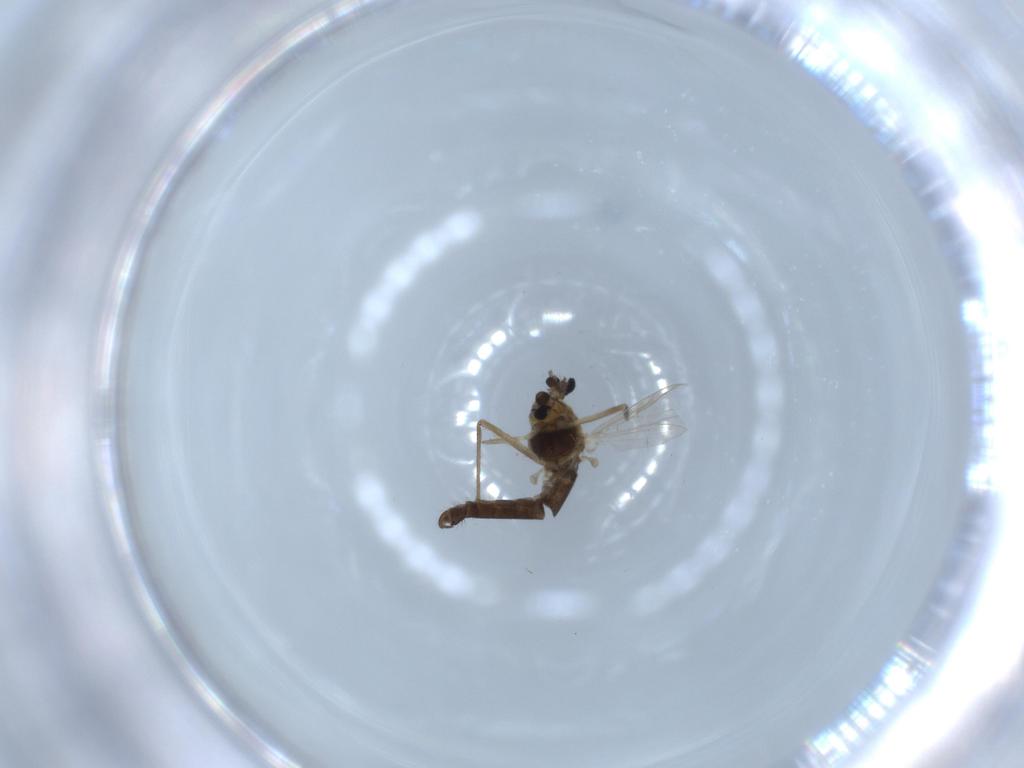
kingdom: Animalia
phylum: Arthropoda
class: Insecta
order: Diptera
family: Chironomidae
